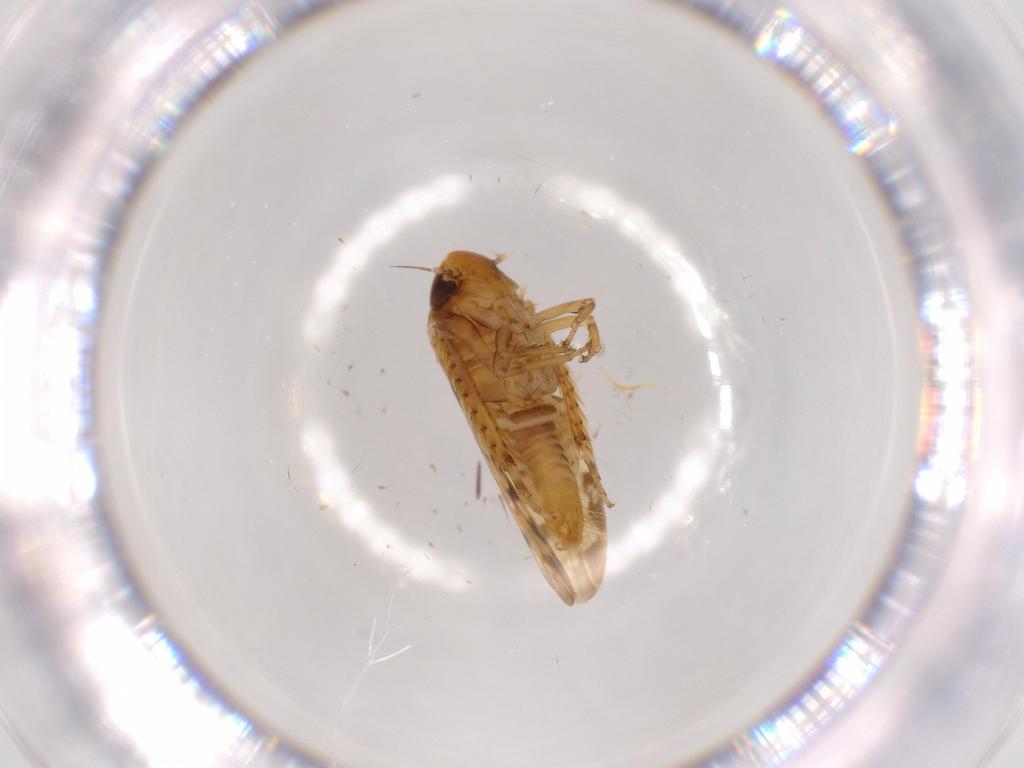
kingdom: Animalia
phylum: Arthropoda
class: Insecta
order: Hemiptera
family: Cicadellidae
